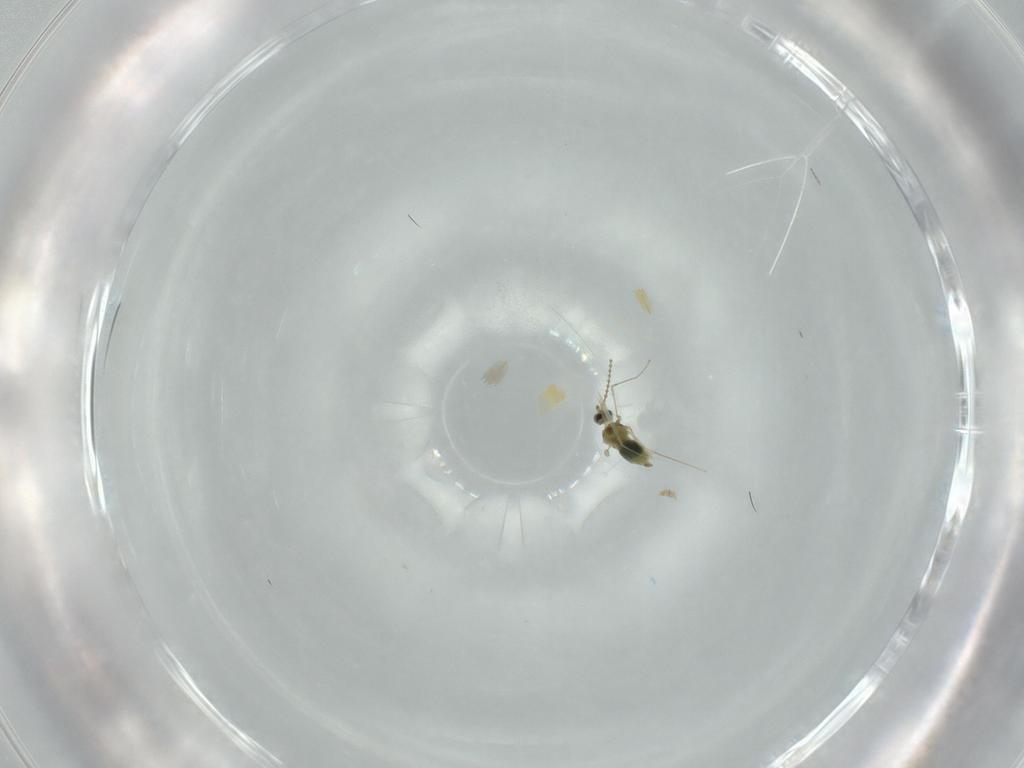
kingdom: Animalia
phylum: Arthropoda
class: Insecta
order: Diptera
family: Cecidomyiidae
